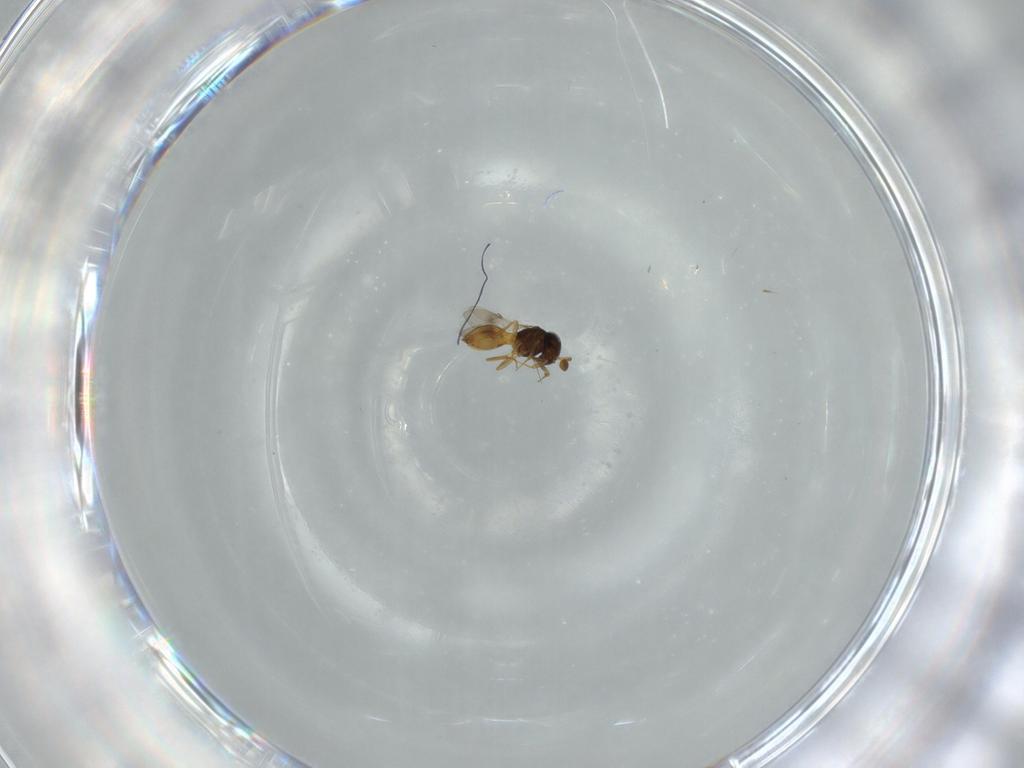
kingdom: Animalia
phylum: Arthropoda
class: Insecta
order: Hymenoptera
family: Scelionidae
